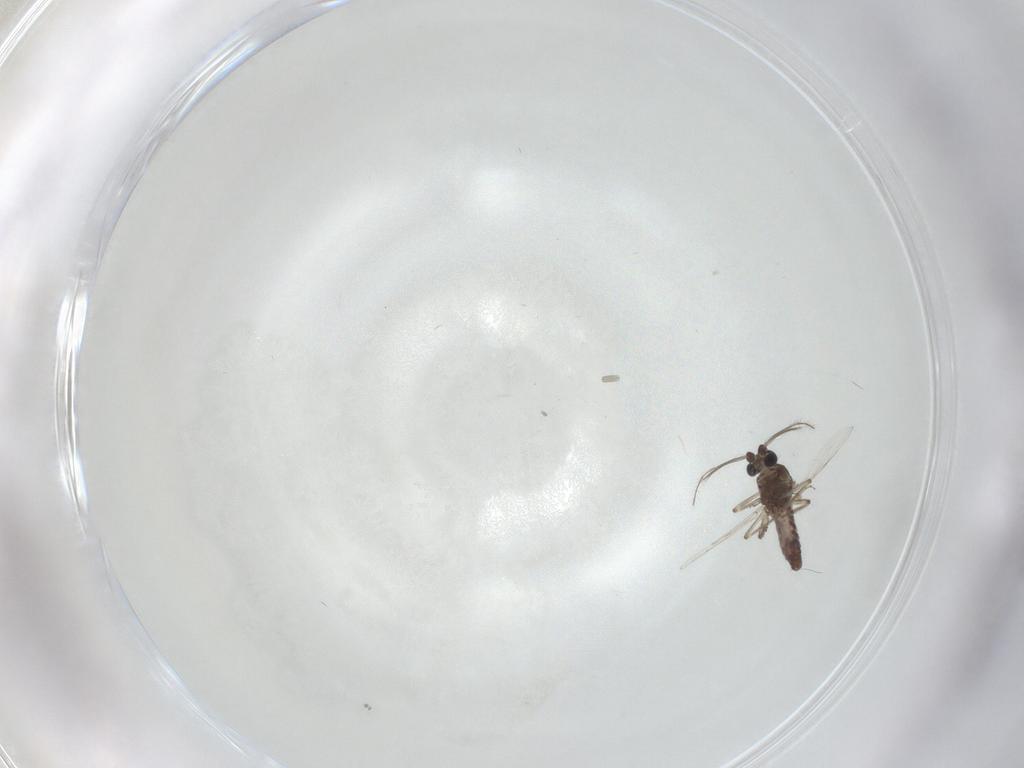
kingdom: Animalia
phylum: Arthropoda
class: Insecta
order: Diptera
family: Ceratopogonidae
